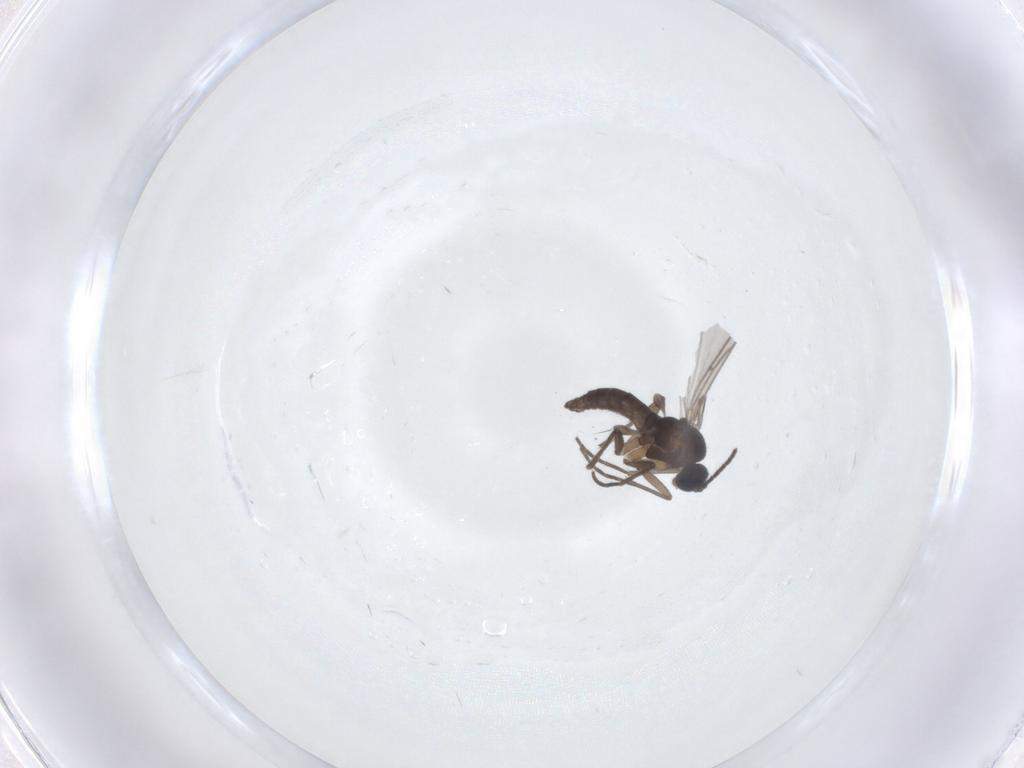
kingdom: Animalia
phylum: Arthropoda
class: Insecta
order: Diptera
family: Sciaridae
